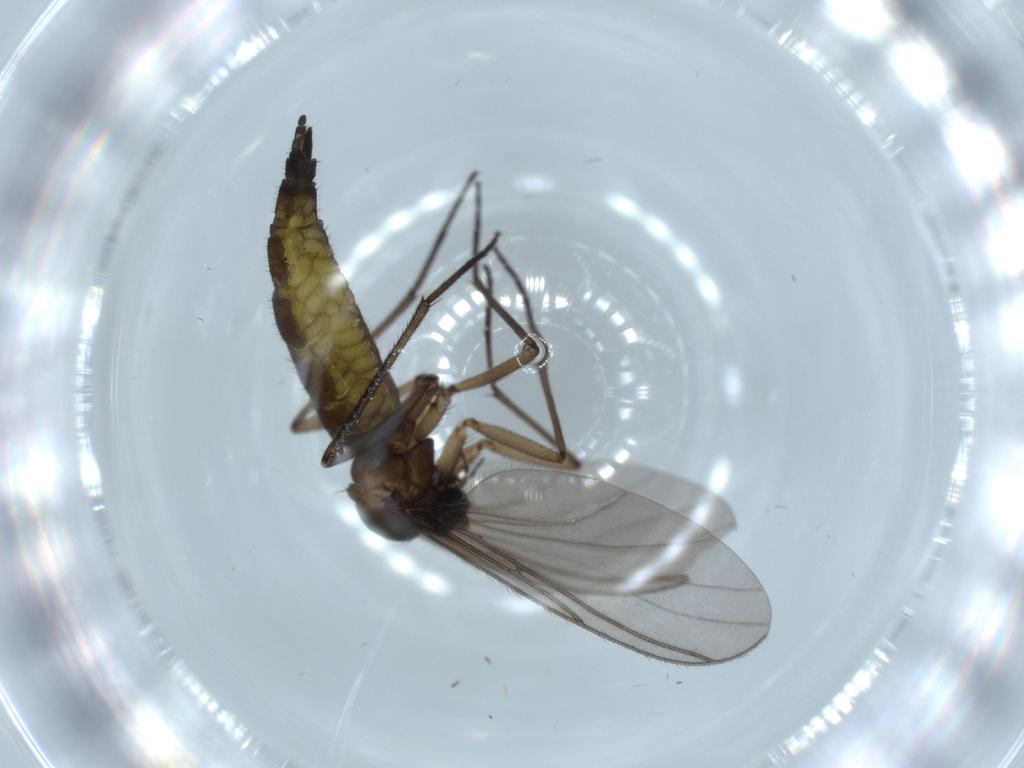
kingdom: Animalia
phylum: Arthropoda
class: Insecta
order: Diptera
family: Sciaridae
